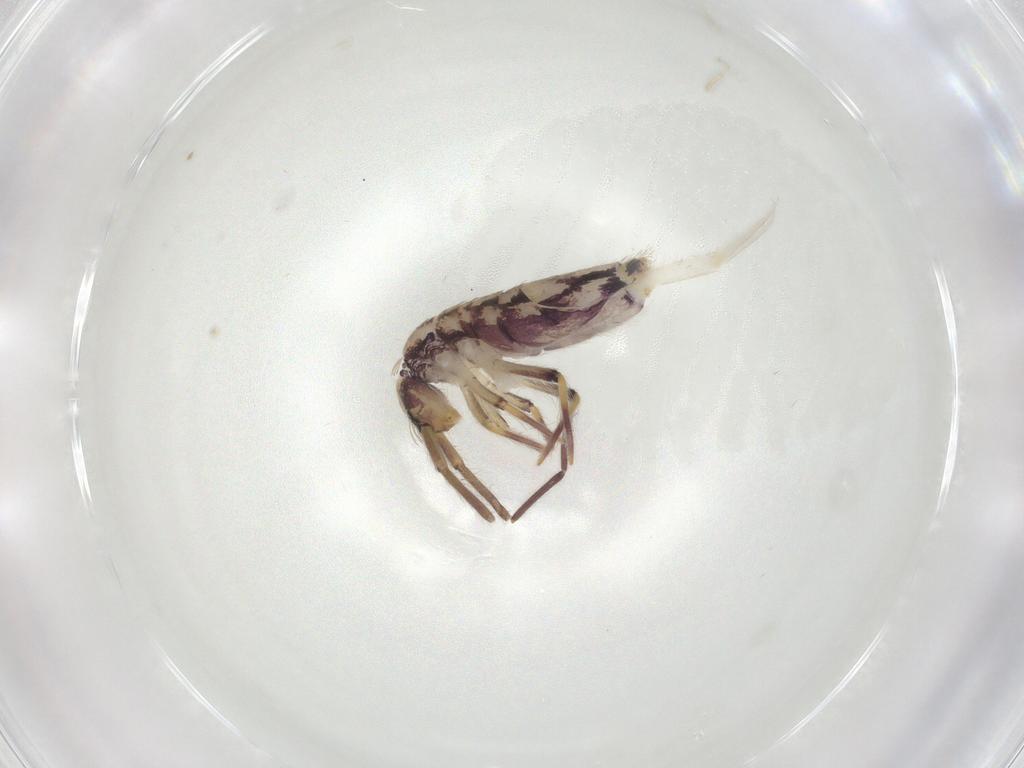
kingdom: Animalia
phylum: Arthropoda
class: Collembola
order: Entomobryomorpha
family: Entomobryidae
